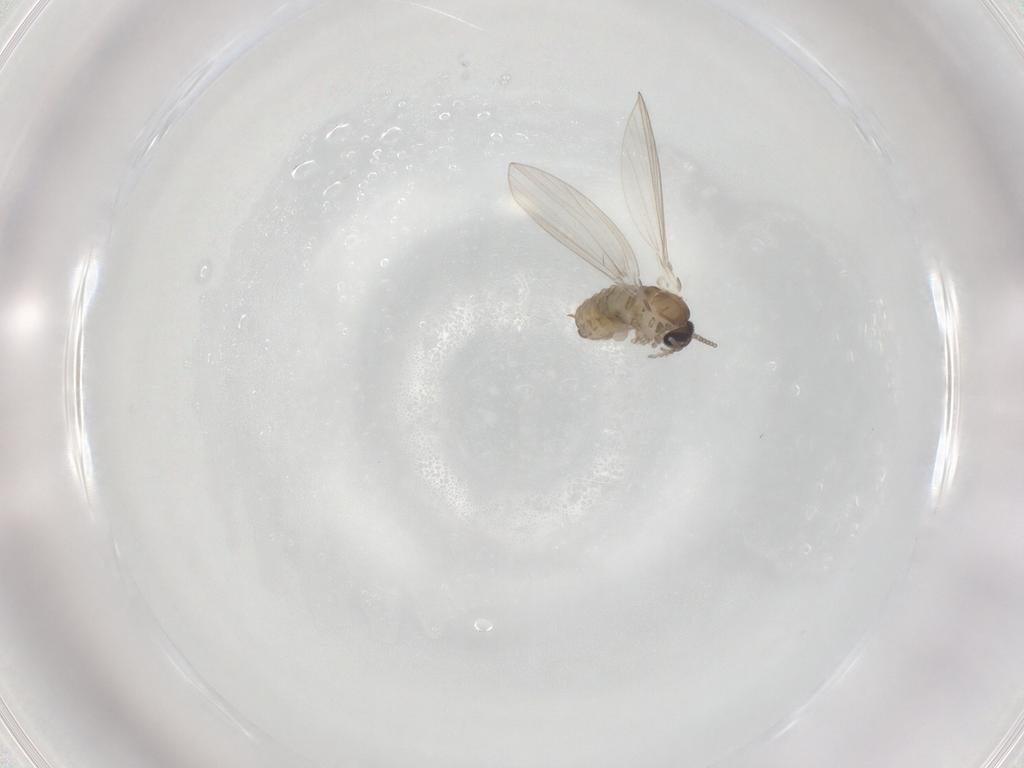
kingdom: Animalia
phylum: Arthropoda
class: Insecta
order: Diptera
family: Psychodidae
